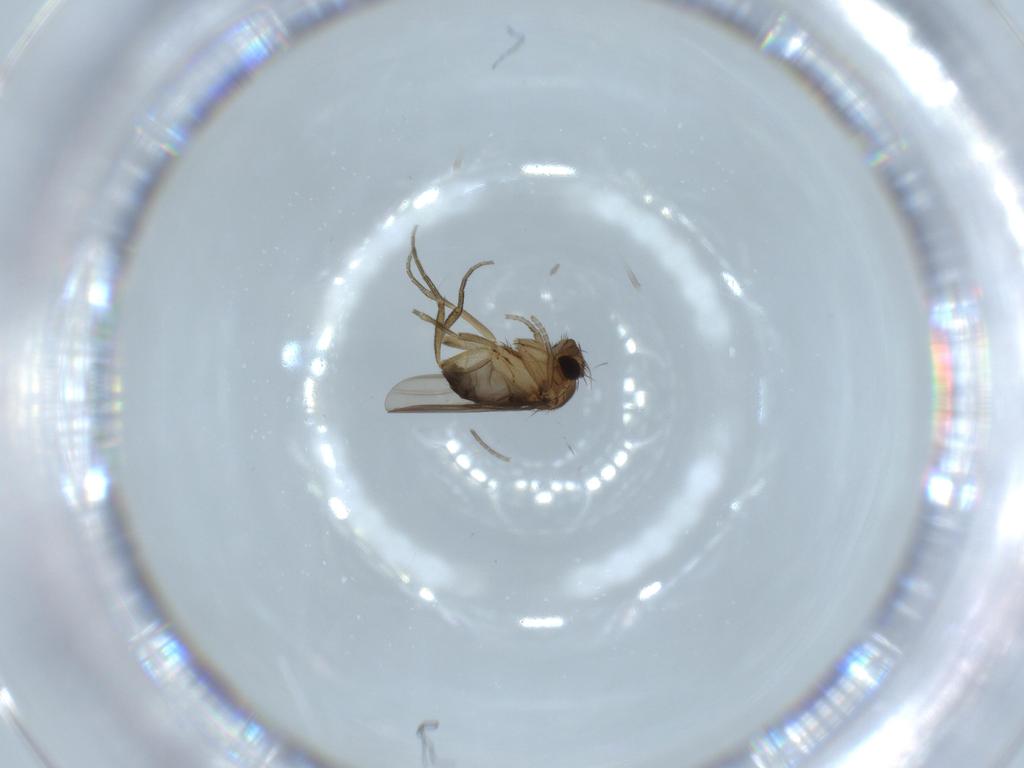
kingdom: Animalia
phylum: Arthropoda
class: Insecta
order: Diptera
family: Phoridae
